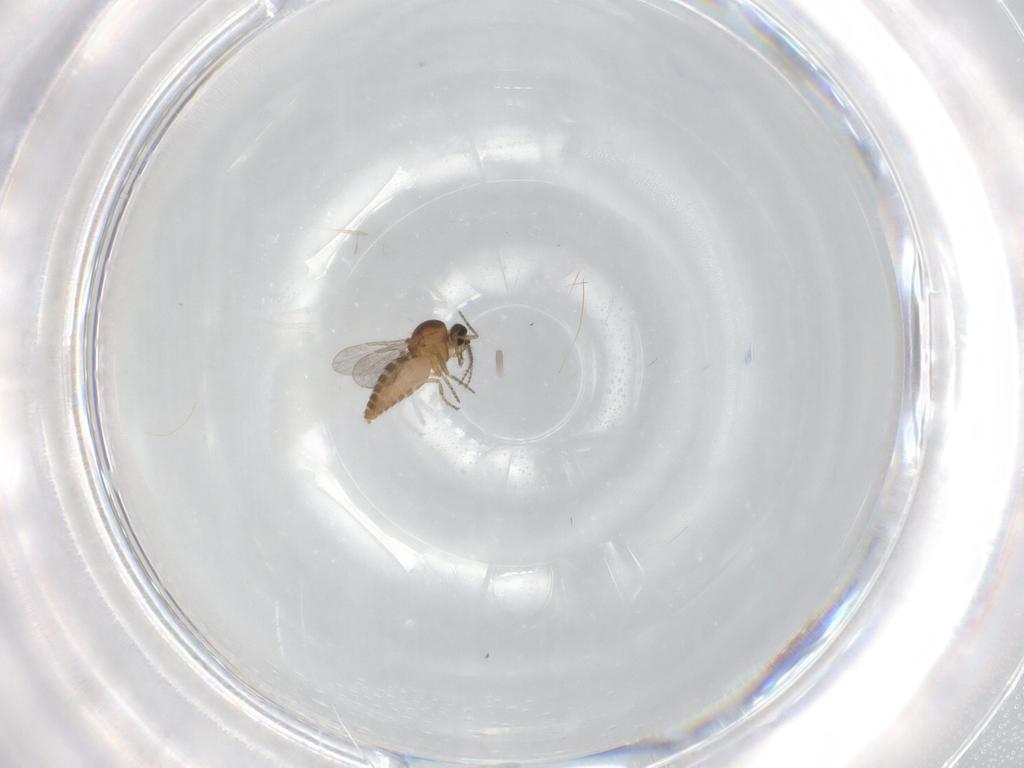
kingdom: Animalia
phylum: Arthropoda
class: Insecta
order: Diptera
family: Ceratopogonidae
